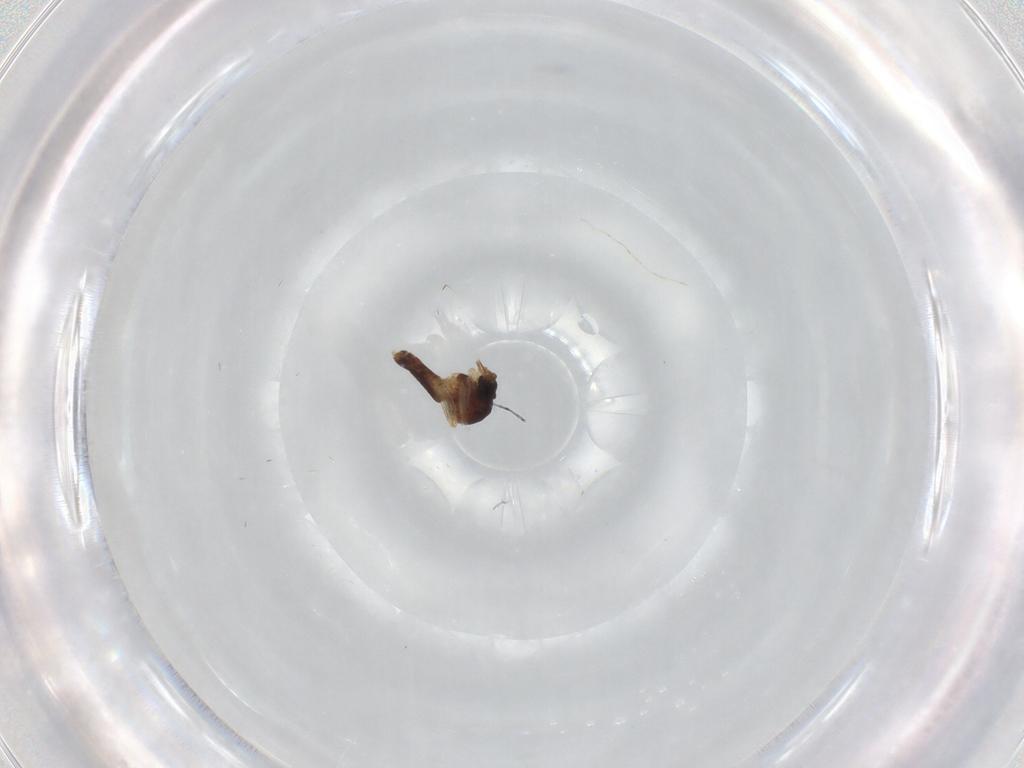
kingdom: Animalia
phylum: Arthropoda
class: Insecta
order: Diptera
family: Ceratopogonidae
